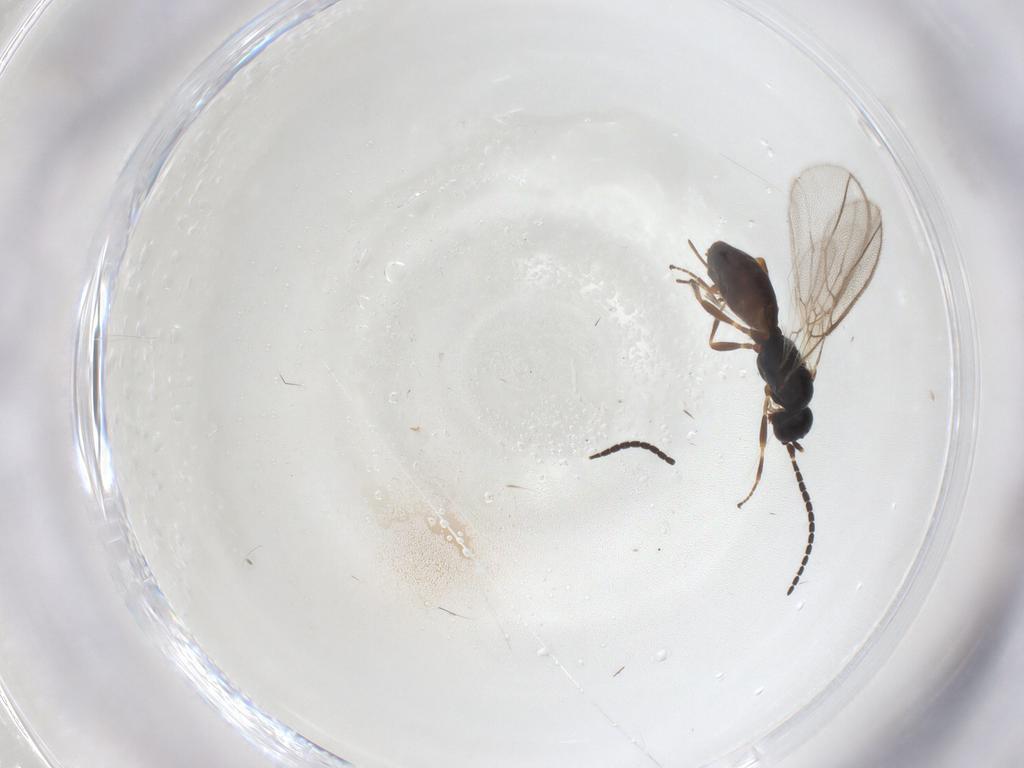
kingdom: Animalia
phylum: Arthropoda
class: Insecta
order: Hymenoptera
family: Braconidae
